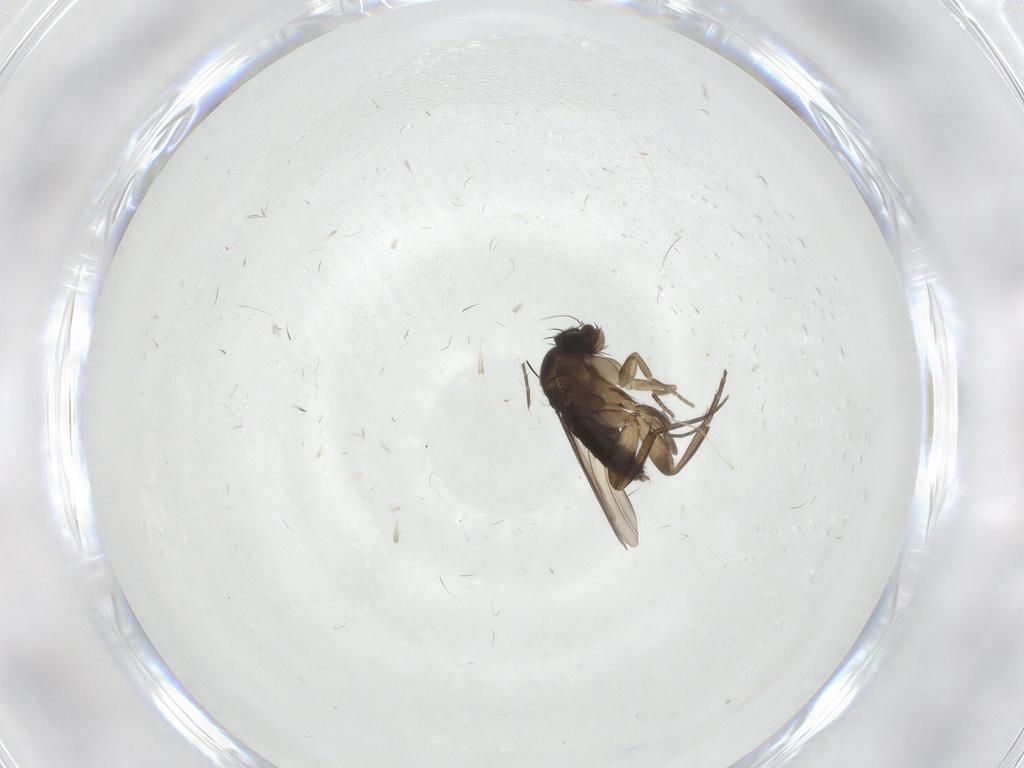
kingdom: Animalia
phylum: Arthropoda
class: Insecta
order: Diptera
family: Phoridae
